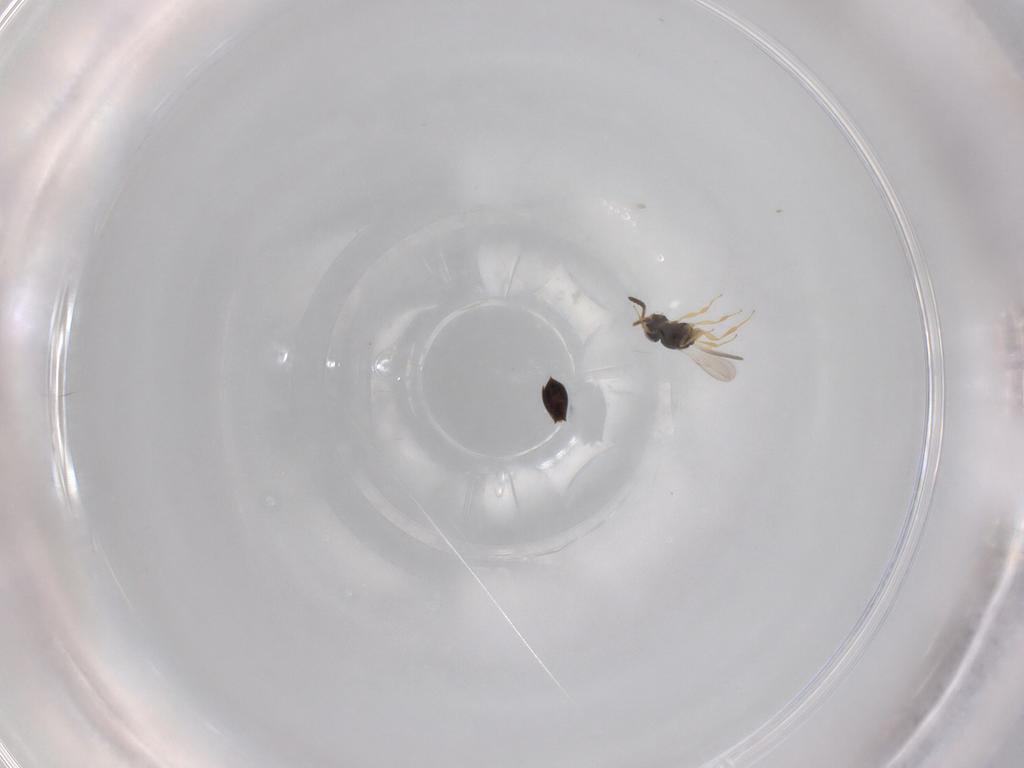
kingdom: Animalia
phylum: Arthropoda
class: Insecta
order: Hymenoptera
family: Scelionidae
